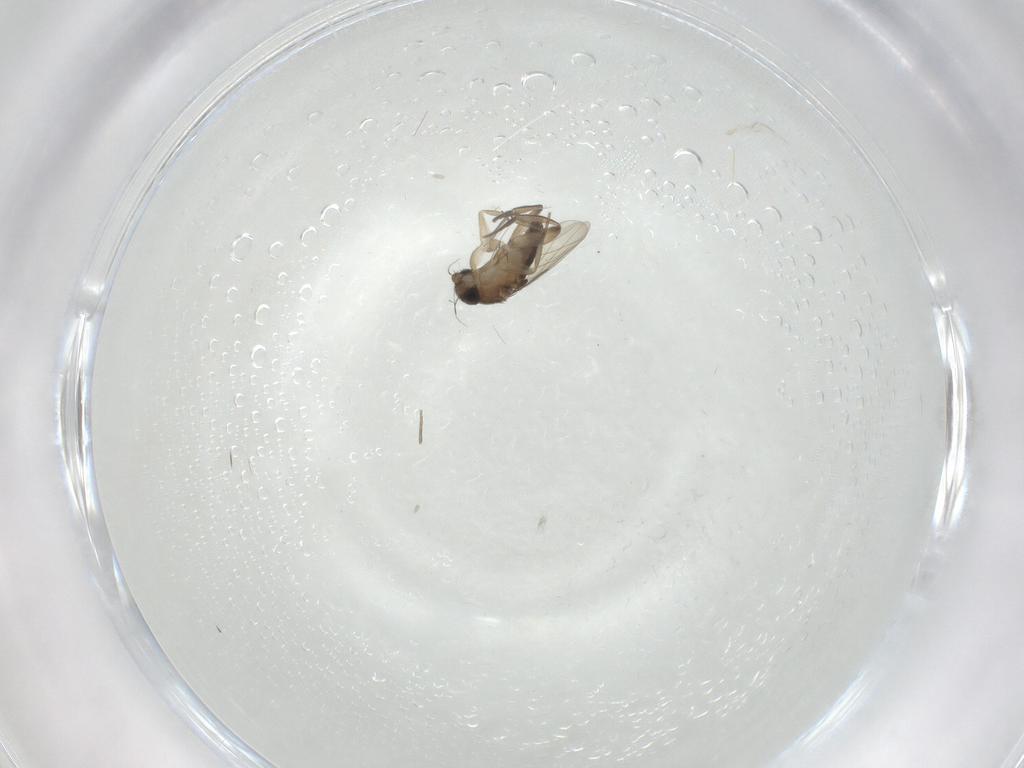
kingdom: Animalia
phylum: Arthropoda
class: Insecta
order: Diptera
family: Phoridae
